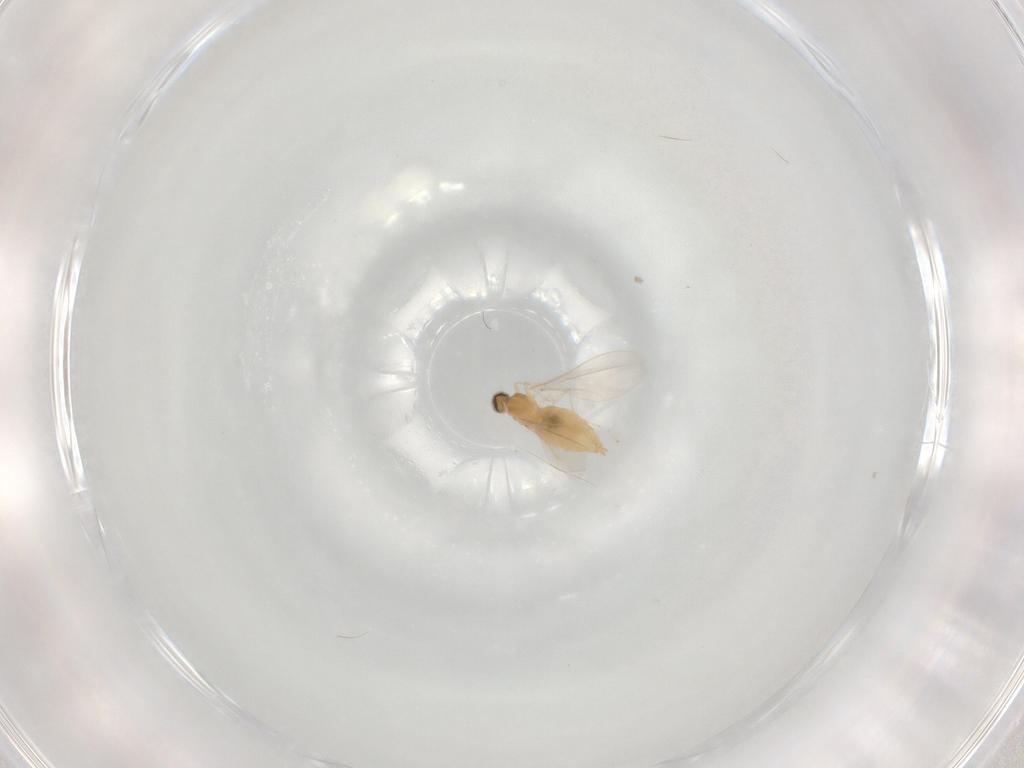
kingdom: Animalia
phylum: Arthropoda
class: Insecta
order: Diptera
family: Cecidomyiidae
